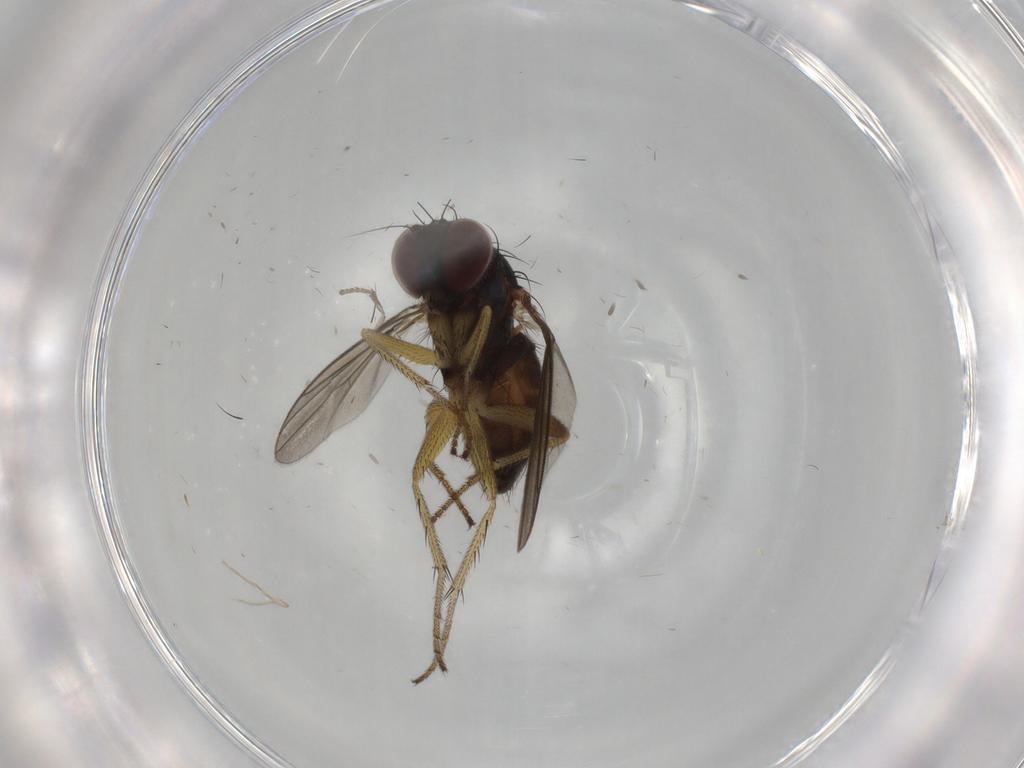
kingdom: Animalia
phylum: Arthropoda
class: Insecta
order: Diptera
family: Dolichopodidae
